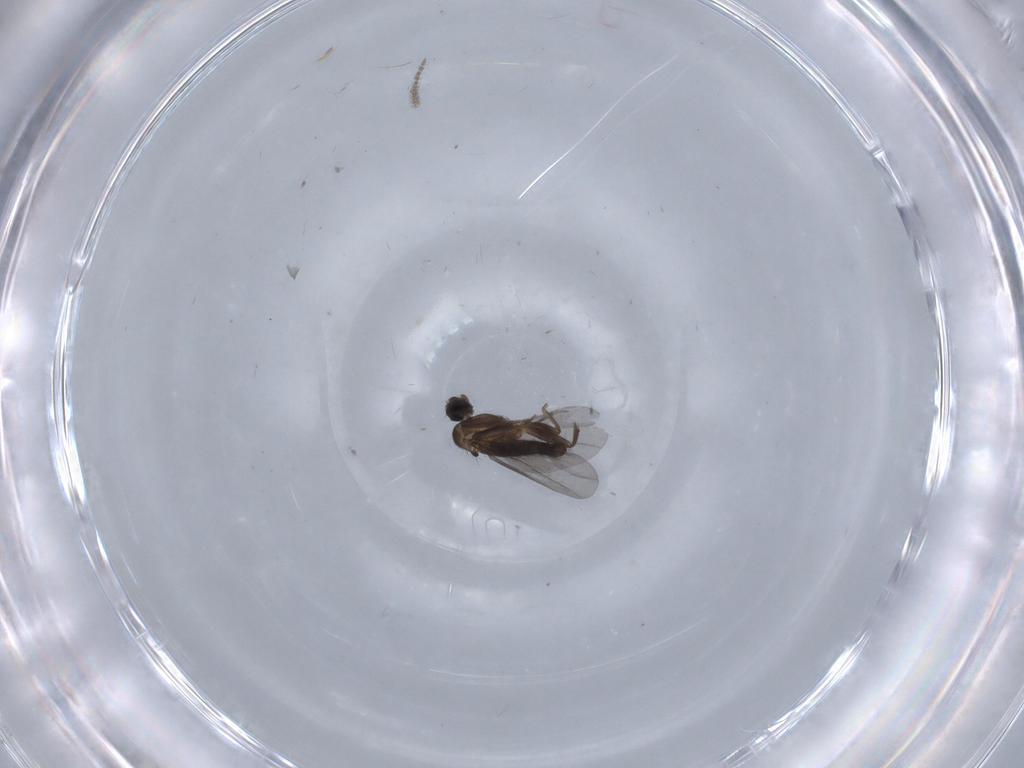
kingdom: Animalia
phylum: Arthropoda
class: Insecta
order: Diptera
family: Phoridae
